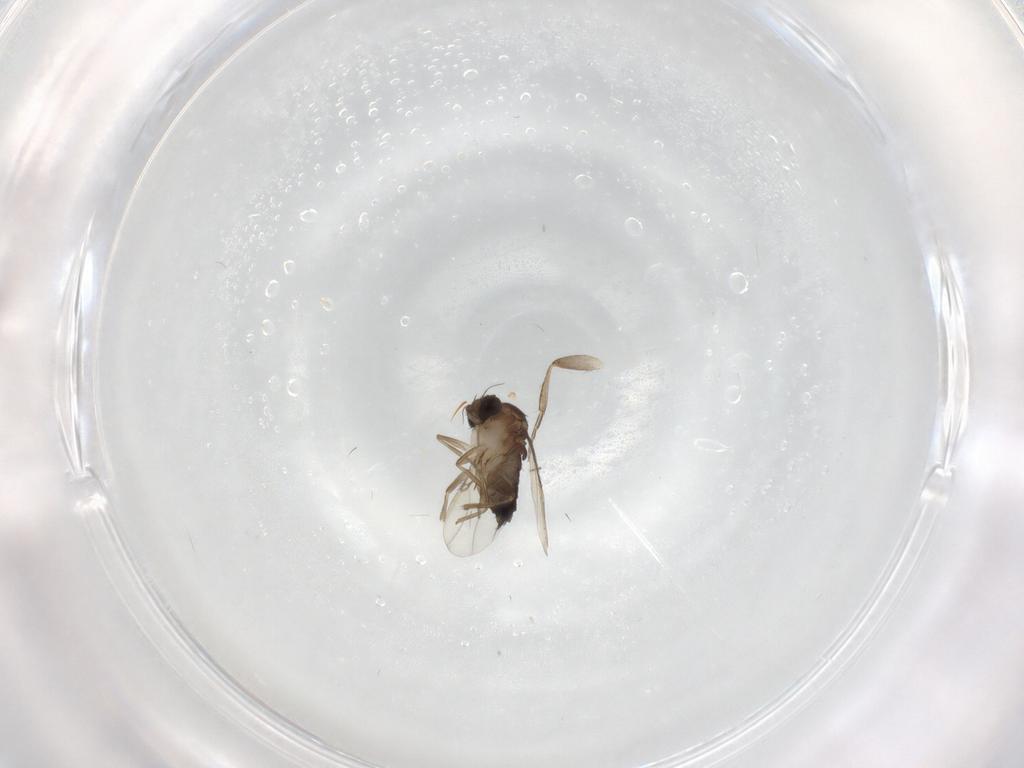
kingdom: Animalia
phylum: Arthropoda
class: Insecta
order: Diptera
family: Phoridae
